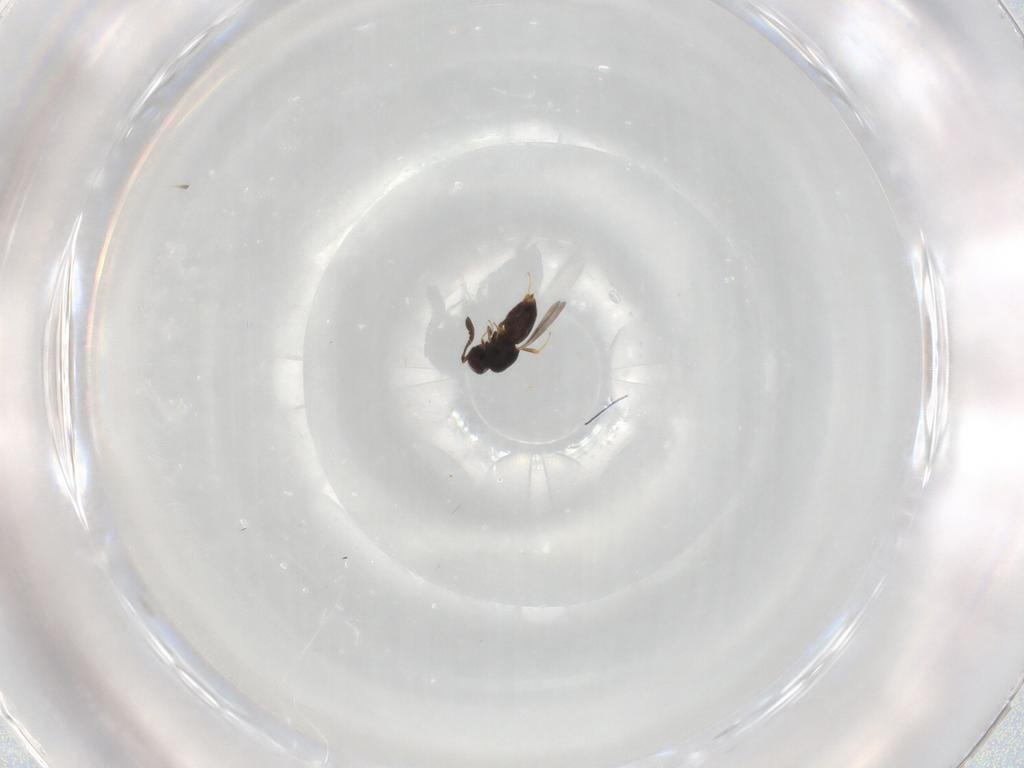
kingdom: Animalia
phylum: Arthropoda
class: Insecta
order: Hymenoptera
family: Ceraphronidae
